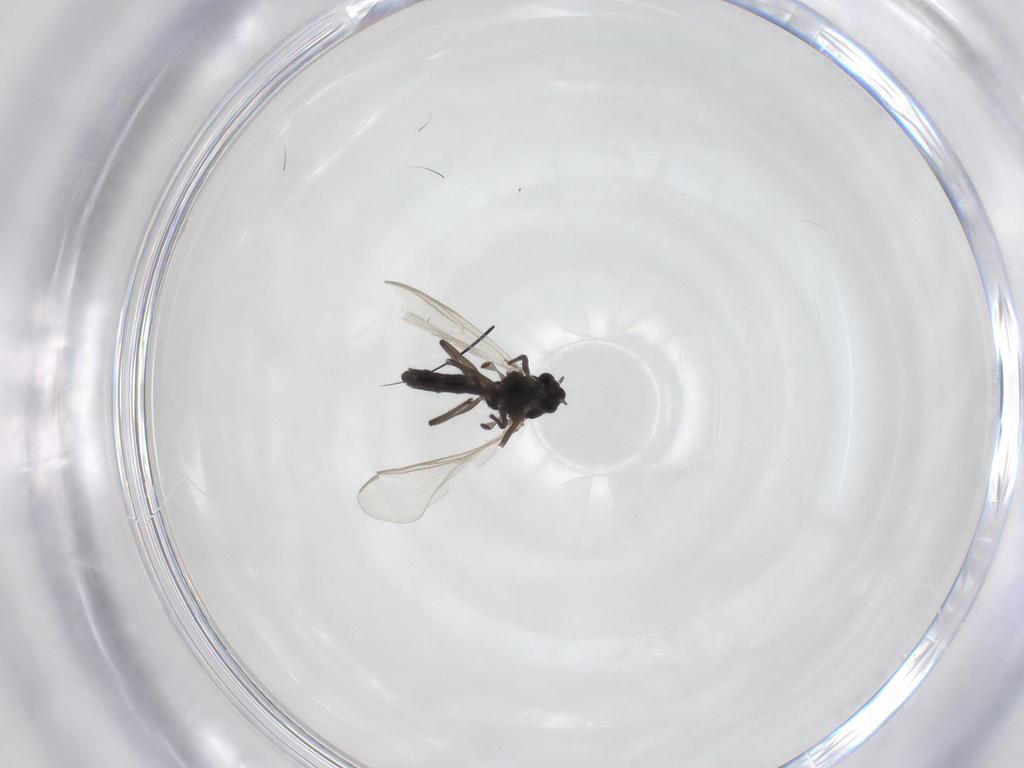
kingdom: Animalia
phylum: Arthropoda
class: Insecta
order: Diptera
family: Chironomidae
